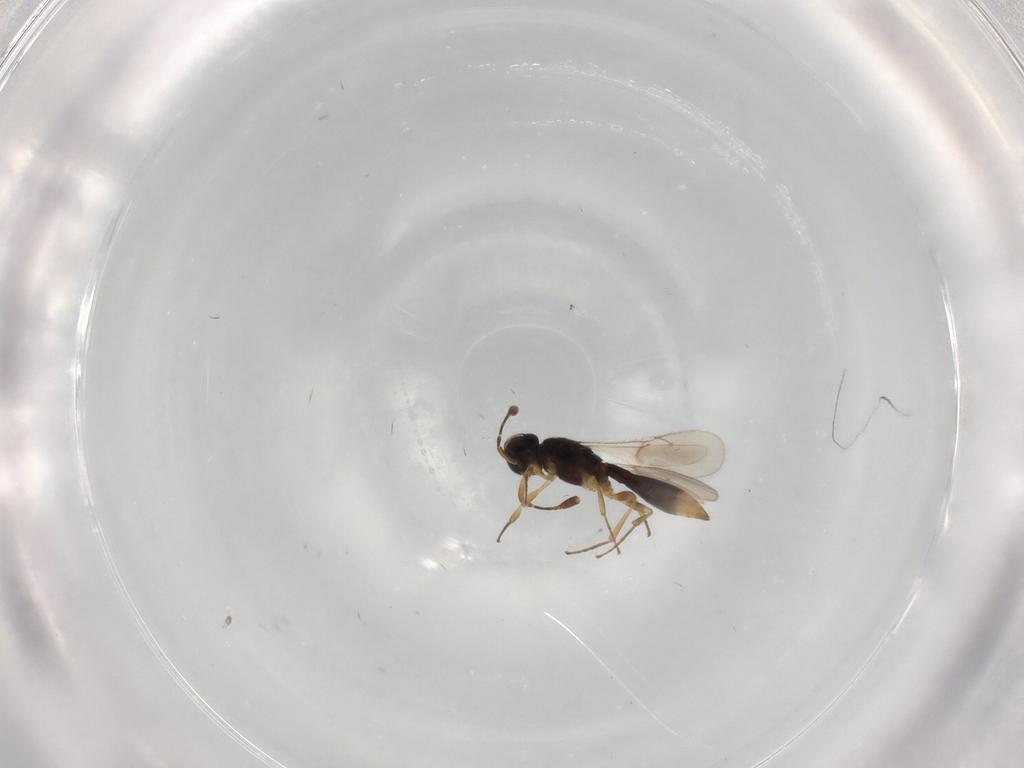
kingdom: Animalia
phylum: Arthropoda
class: Insecta
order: Hymenoptera
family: Scelionidae
